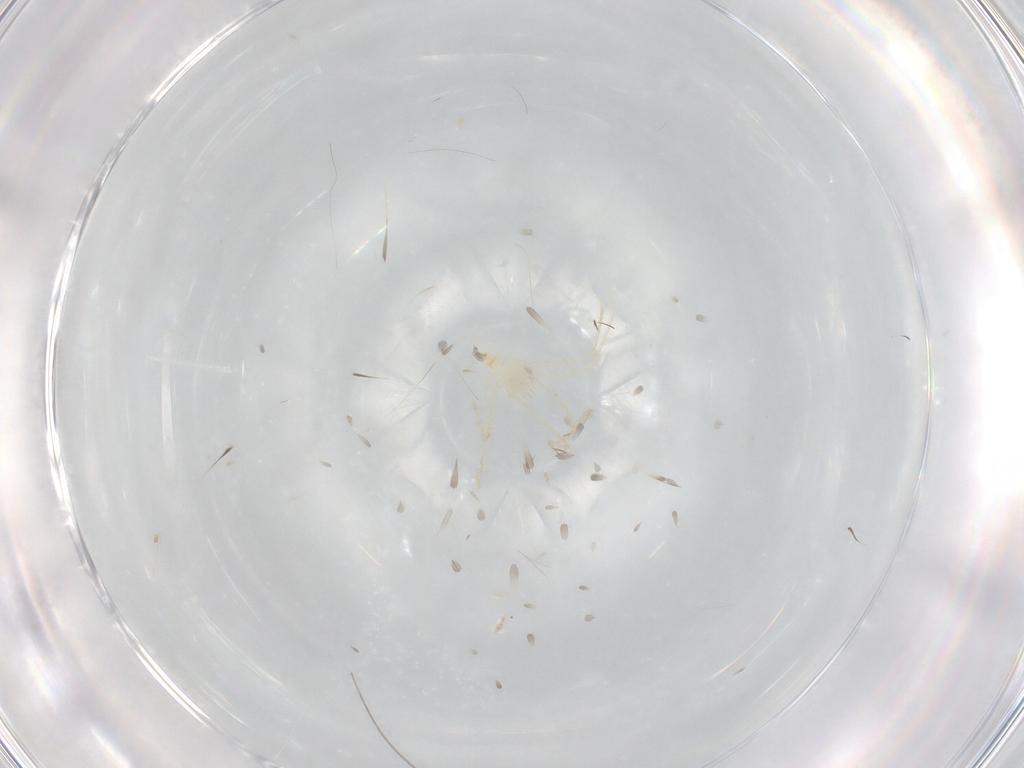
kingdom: Animalia
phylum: Arthropoda
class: Arachnida
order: Trombidiformes
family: Erythraeidae
